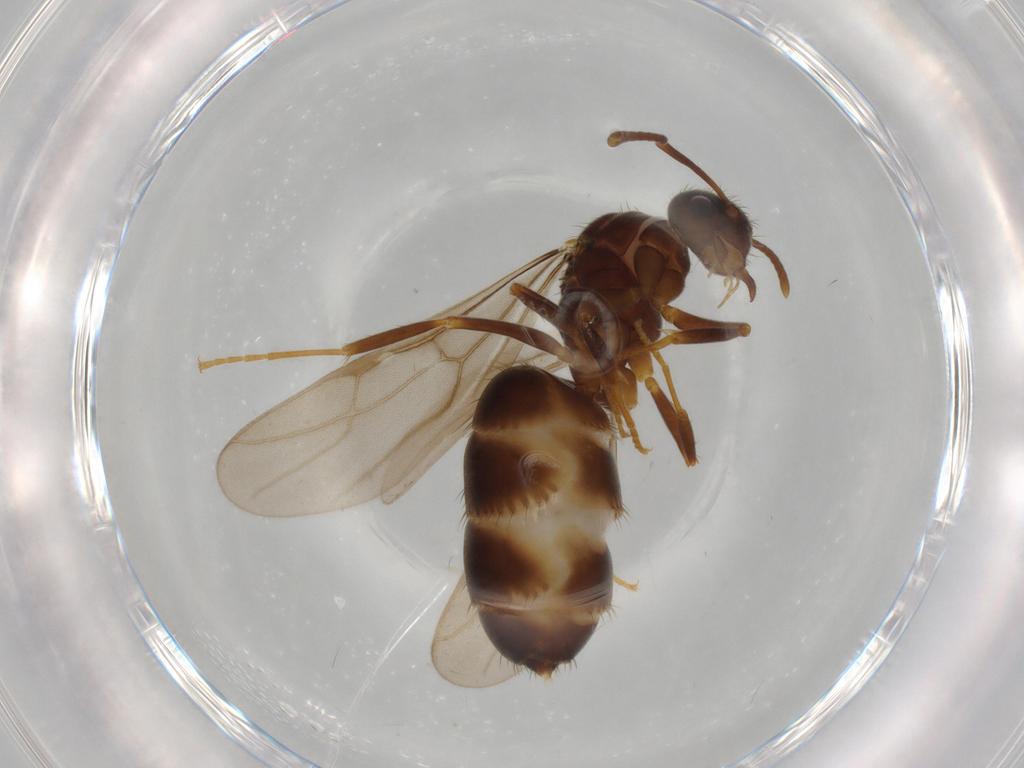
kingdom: Animalia
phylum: Arthropoda
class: Insecta
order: Hymenoptera
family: Formicidae
